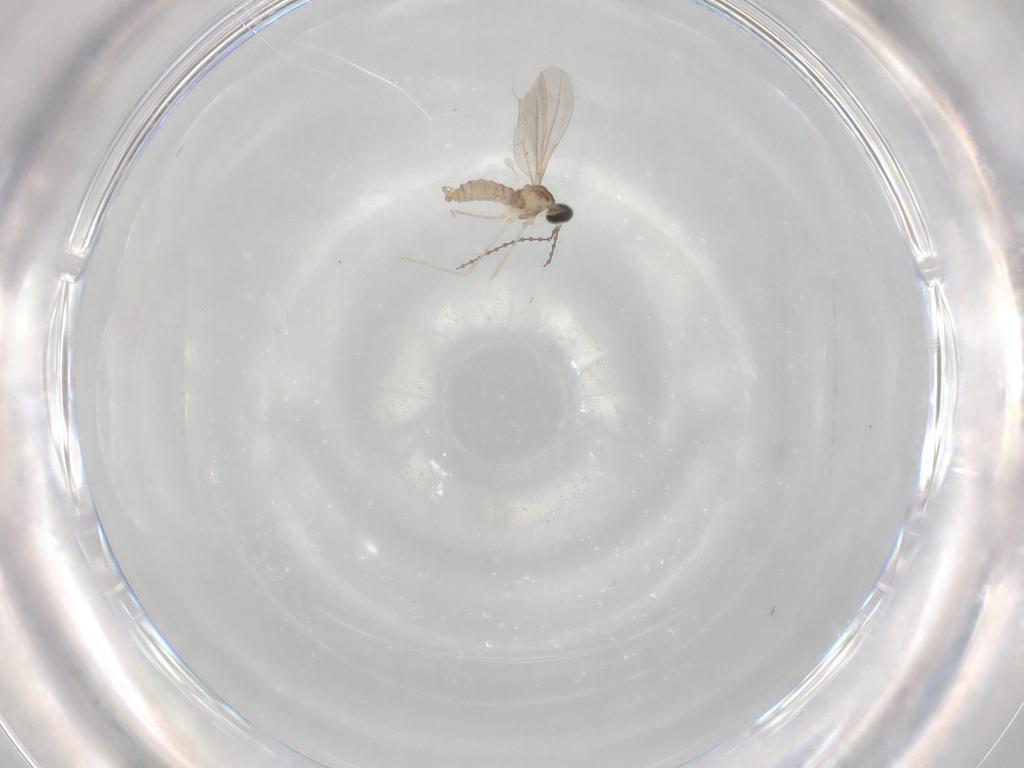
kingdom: Animalia
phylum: Arthropoda
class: Insecta
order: Diptera
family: Cecidomyiidae
